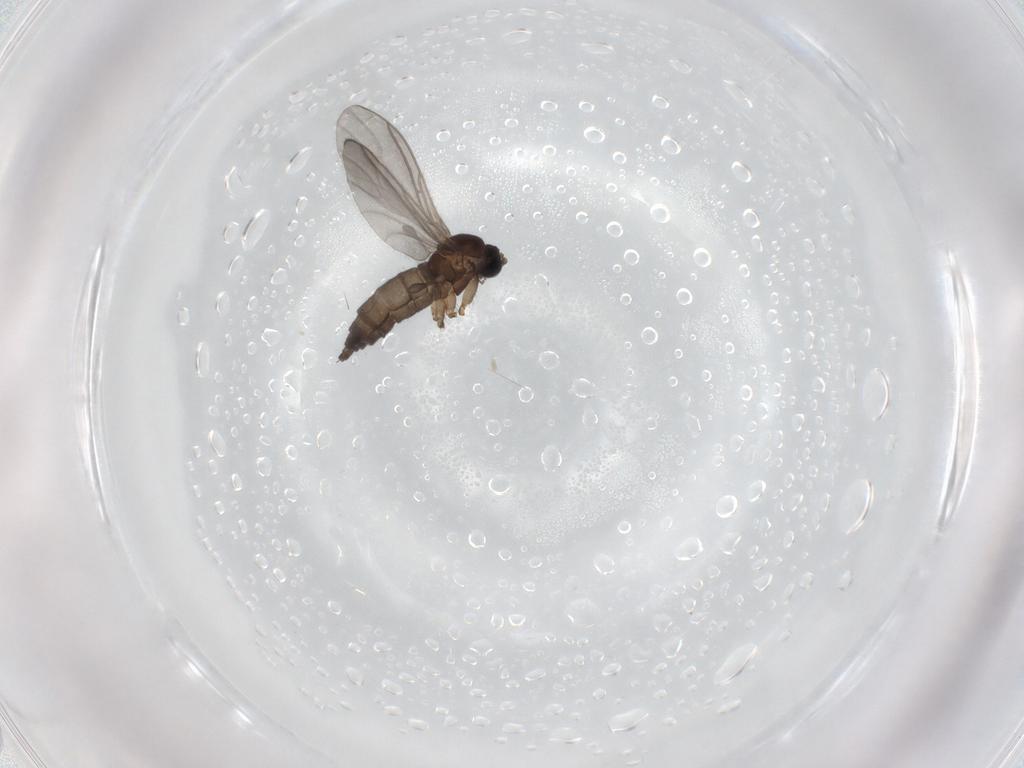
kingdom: Animalia
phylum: Arthropoda
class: Insecta
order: Diptera
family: Sciaridae
